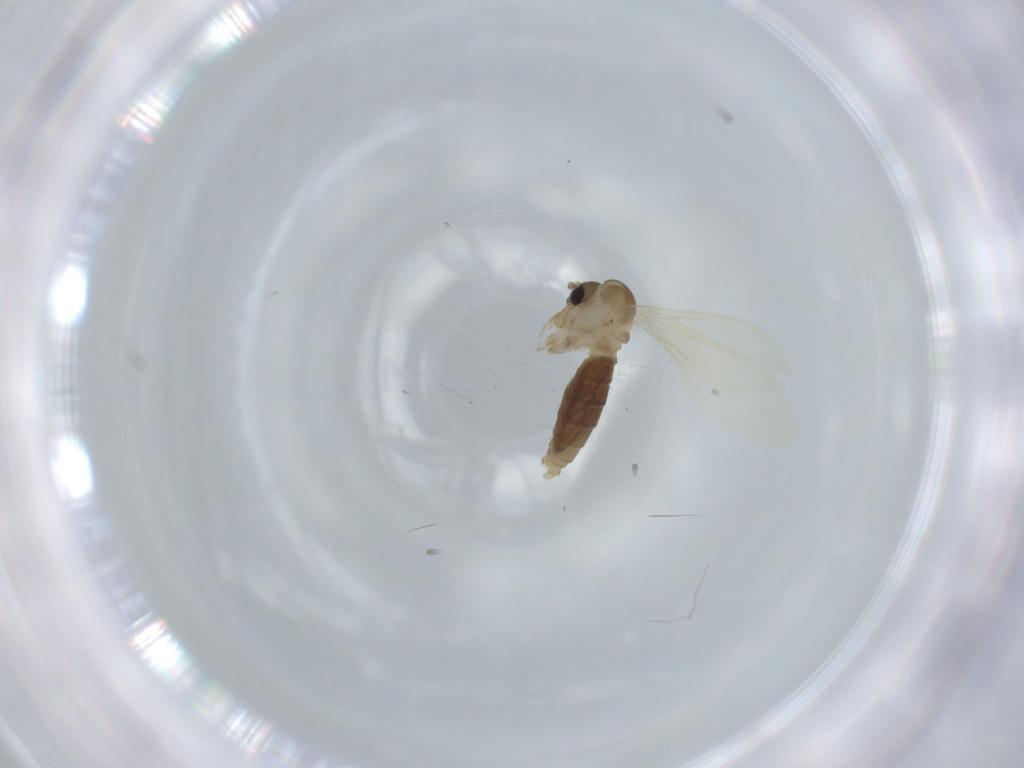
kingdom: Animalia
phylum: Arthropoda
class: Insecta
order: Diptera
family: Psychodidae
